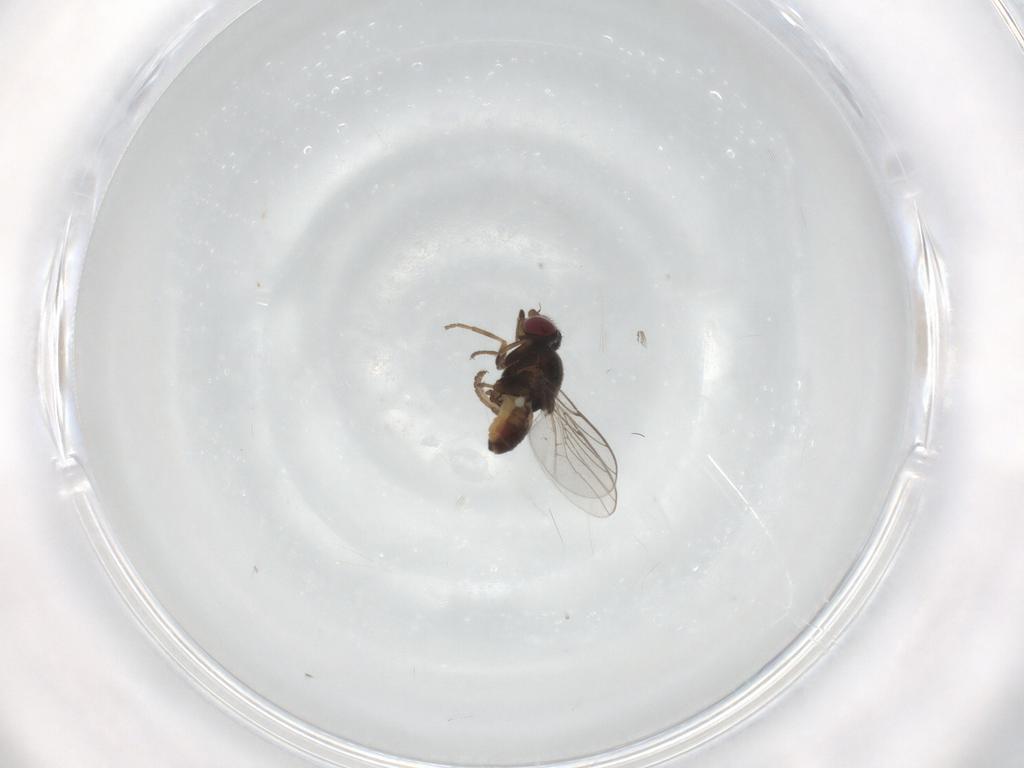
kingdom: Animalia
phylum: Arthropoda
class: Insecta
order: Diptera
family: Chloropidae
